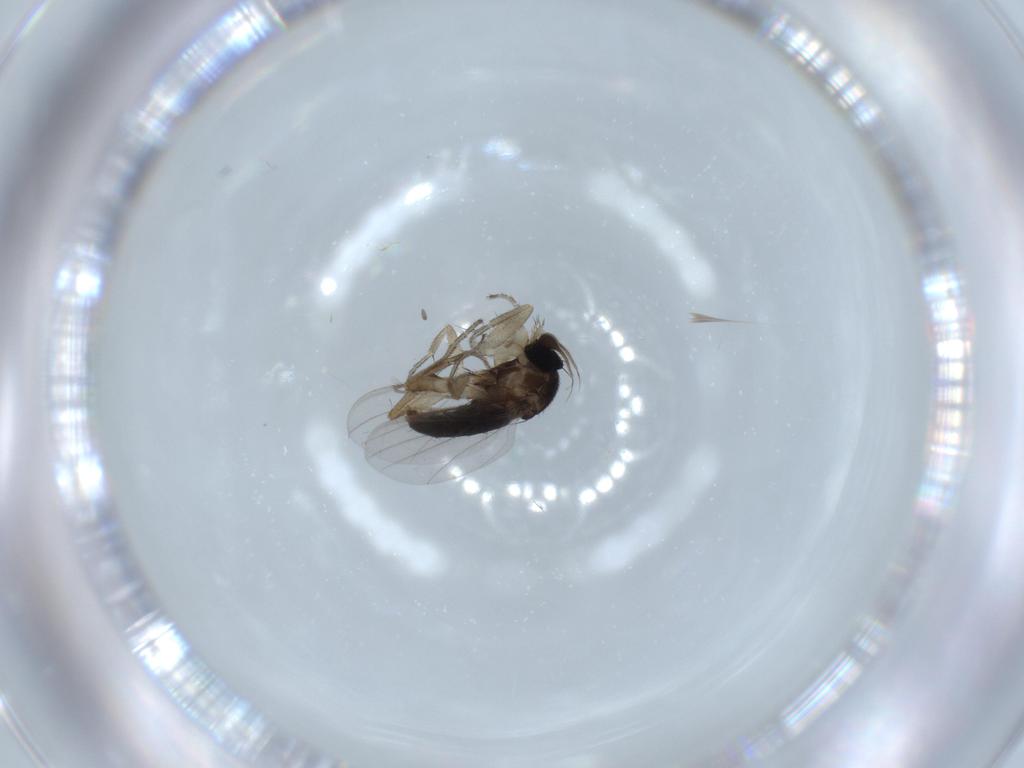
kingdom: Animalia
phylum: Arthropoda
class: Insecta
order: Diptera
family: Phoridae
